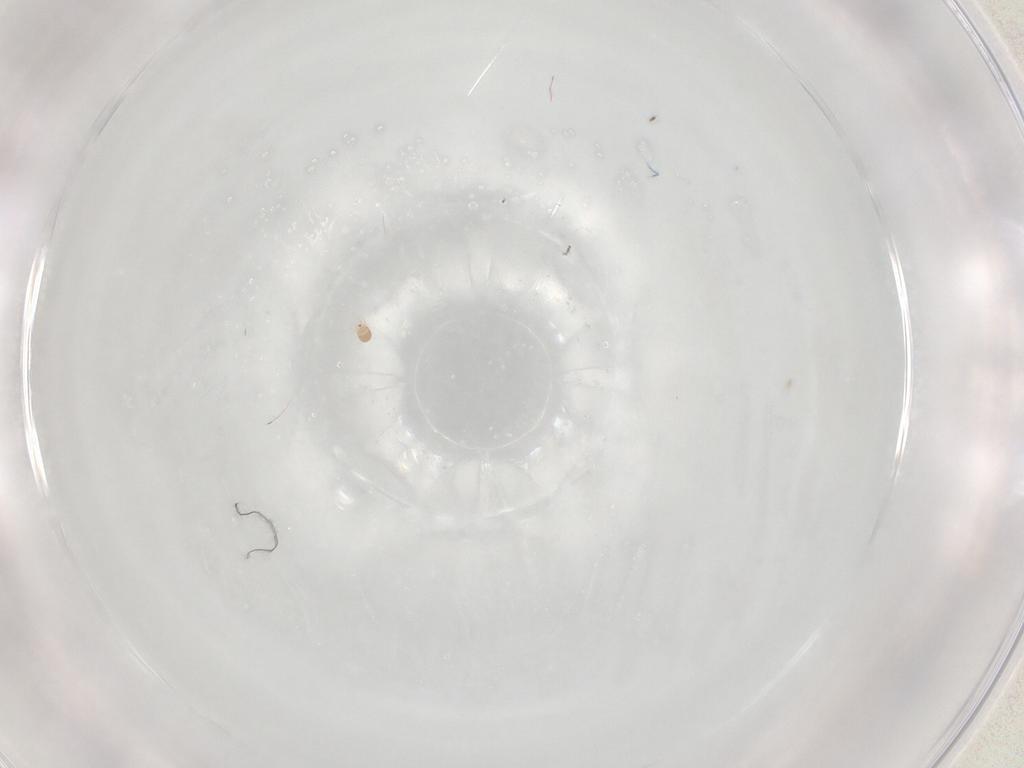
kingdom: Animalia
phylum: Arthropoda
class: Arachnida
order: Sarcoptiformes
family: Hemisarcoptidae
